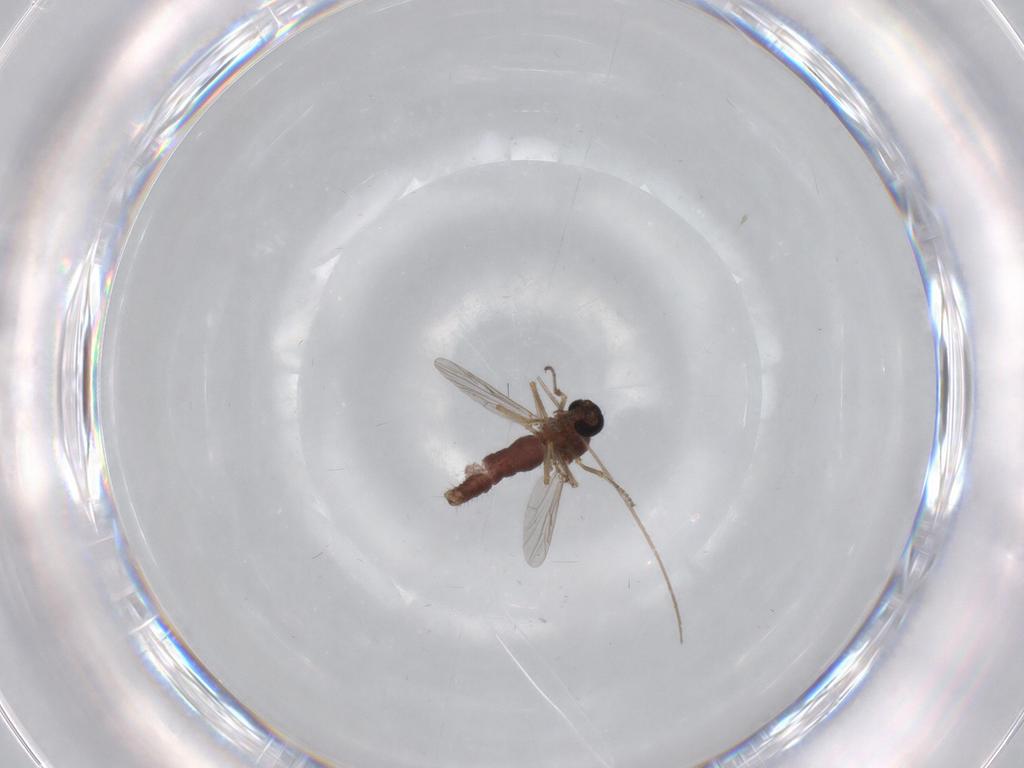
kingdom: Animalia
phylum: Arthropoda
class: Insecta
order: Diptera
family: Ceratopogonidae
